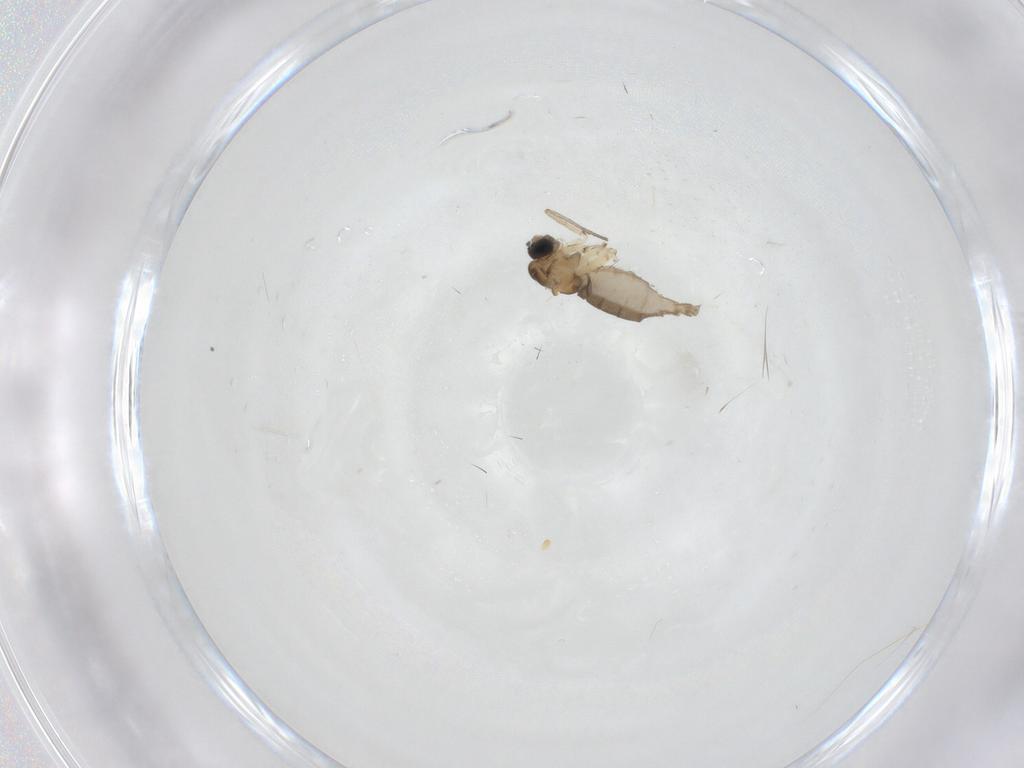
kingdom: Animalia
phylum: Arthropoda
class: Insecta
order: Diptera
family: Sciaridae
